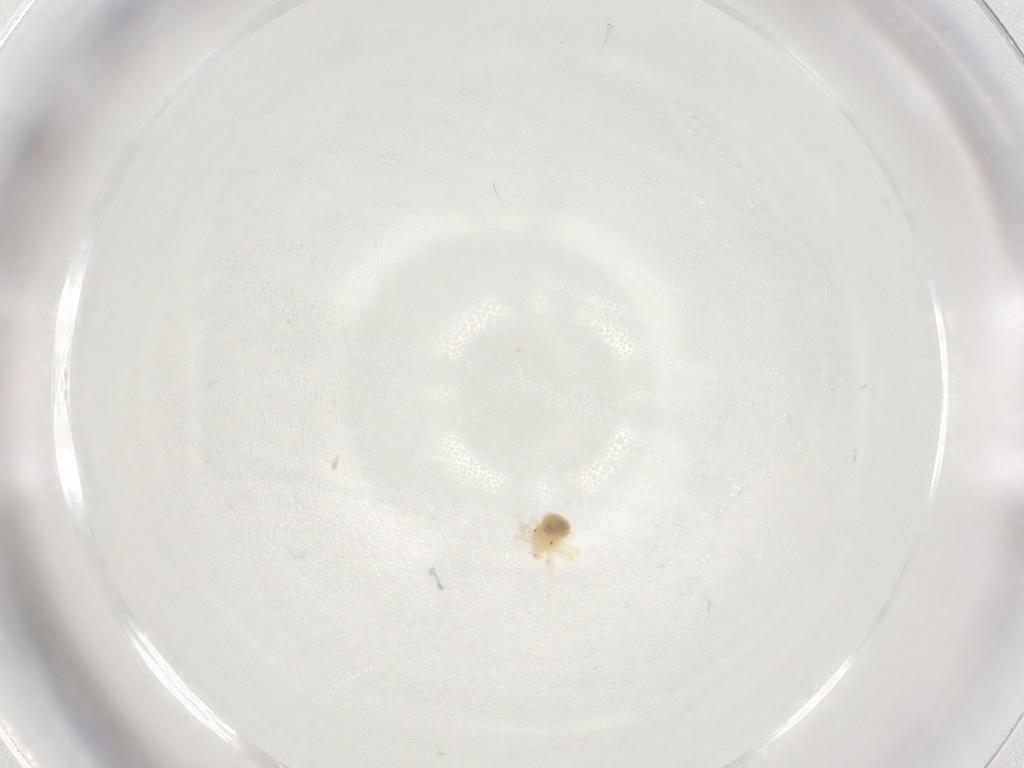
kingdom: Animalia
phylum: Arthropoda
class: Arachnida
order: Trombidiformes
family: Anystidae
